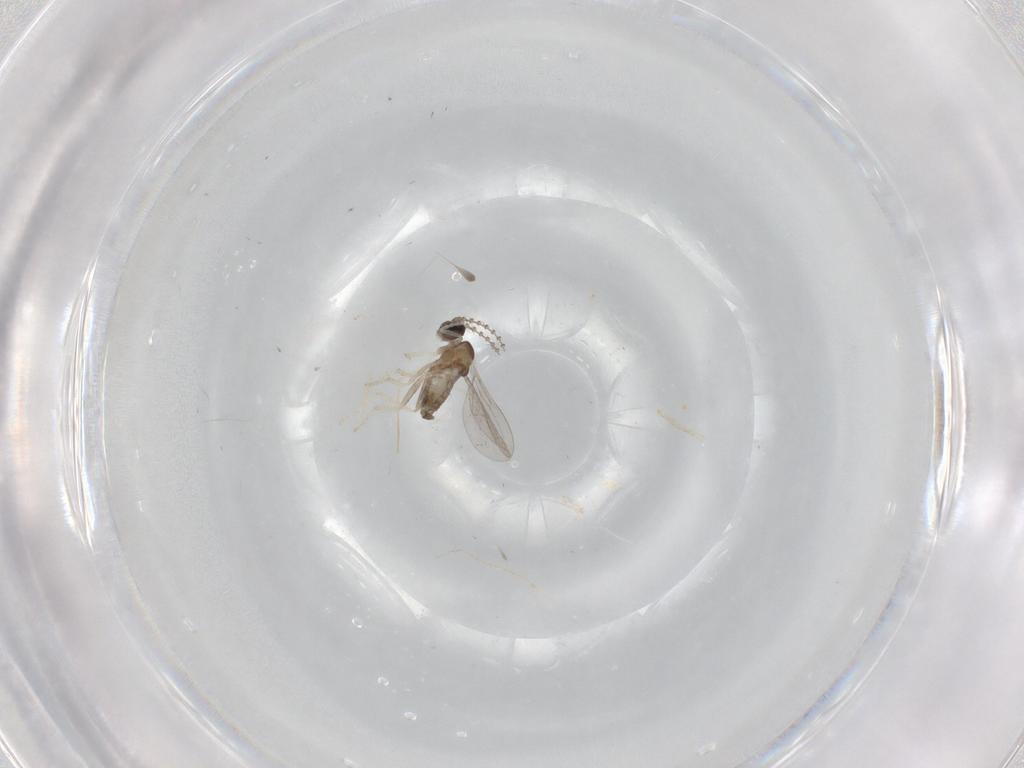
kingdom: Animalia
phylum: Arthropoda
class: Insecta
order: Diptera
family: Cecidomyiidae
